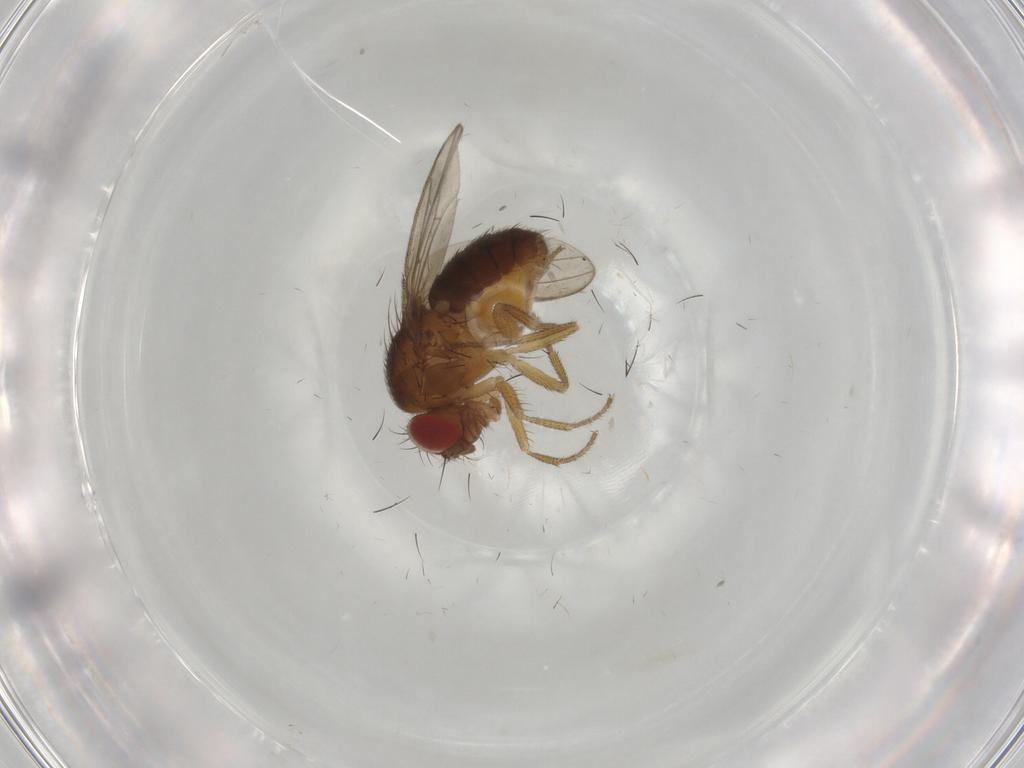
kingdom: Animalia
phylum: Arthropoda
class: Insecta
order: Diptera
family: Drosophilidae
